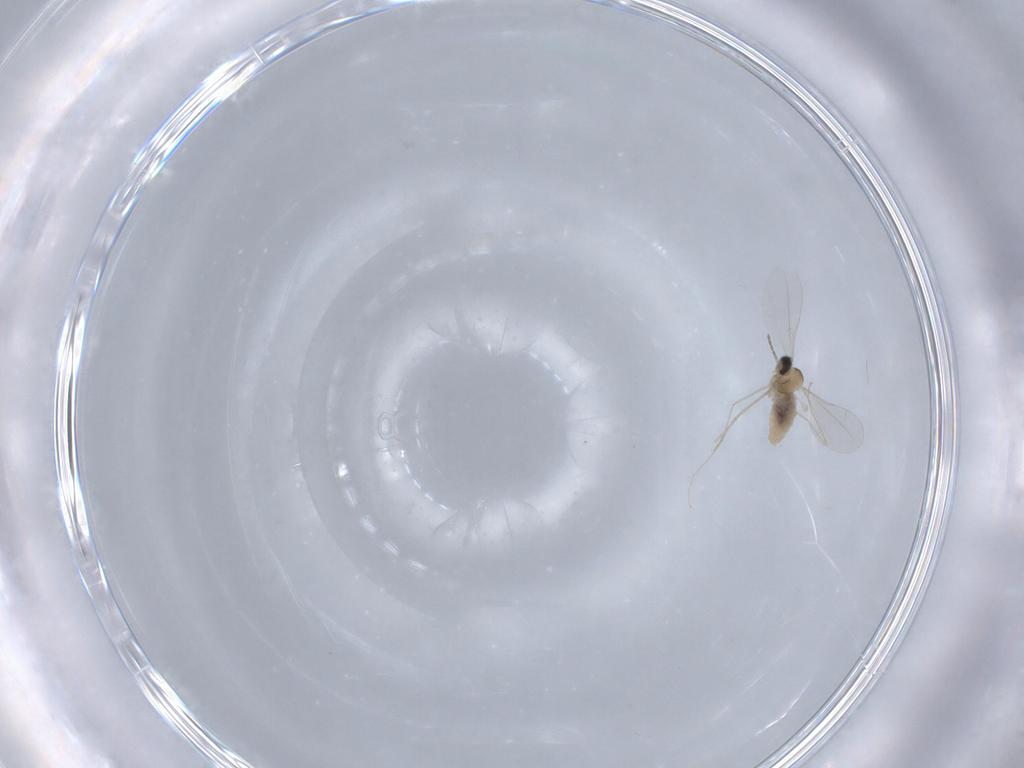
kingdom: Animalia
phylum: Arthropoda
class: Insecta
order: Diptera
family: Cecidomyiidae
